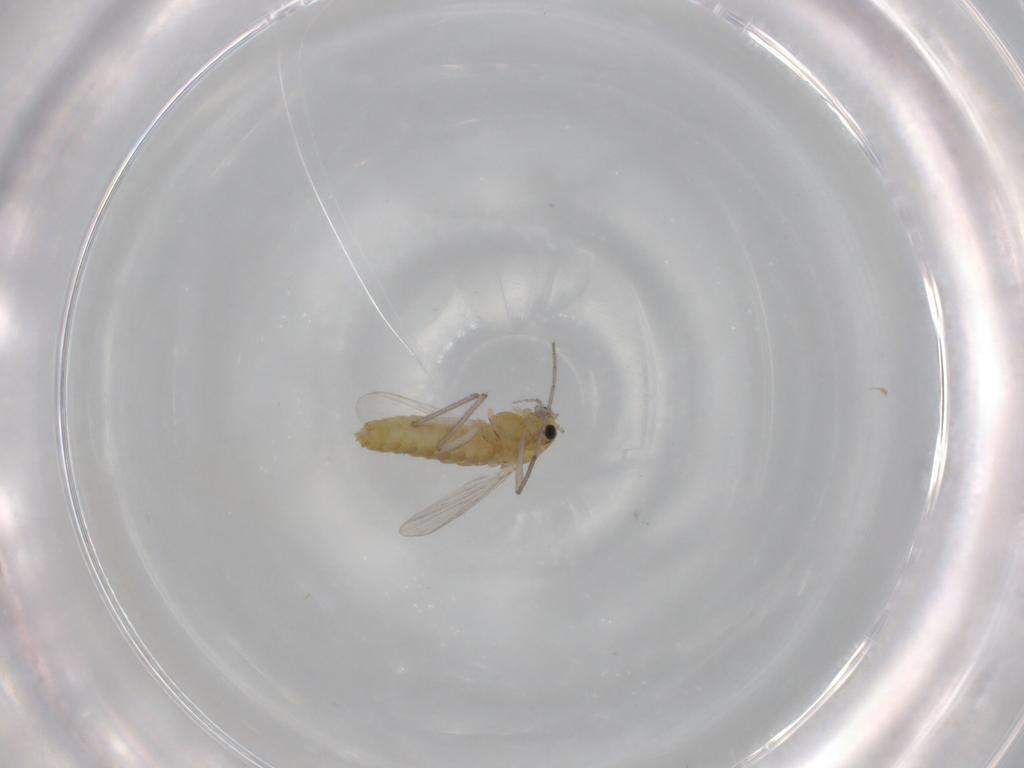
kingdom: Animalia
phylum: Arthropoda
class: Insecta
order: Diptera
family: Chironomidae
